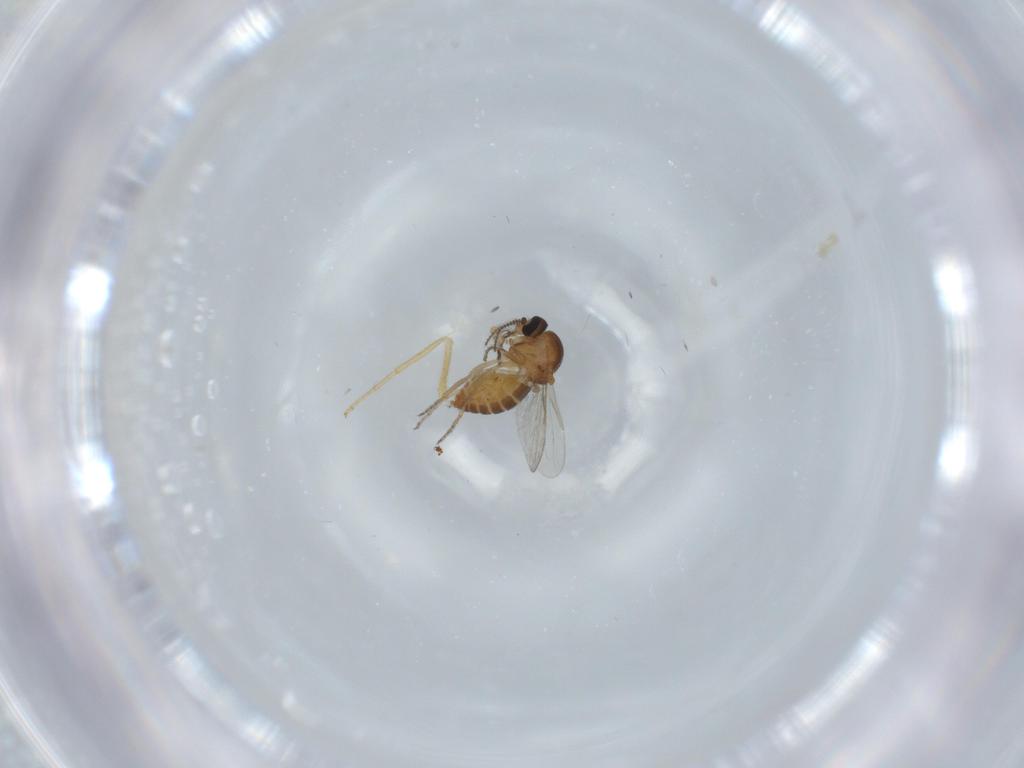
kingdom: Animalia
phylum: Arthropoda
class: Insecta
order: Diptera
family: Ceratopogonidae
